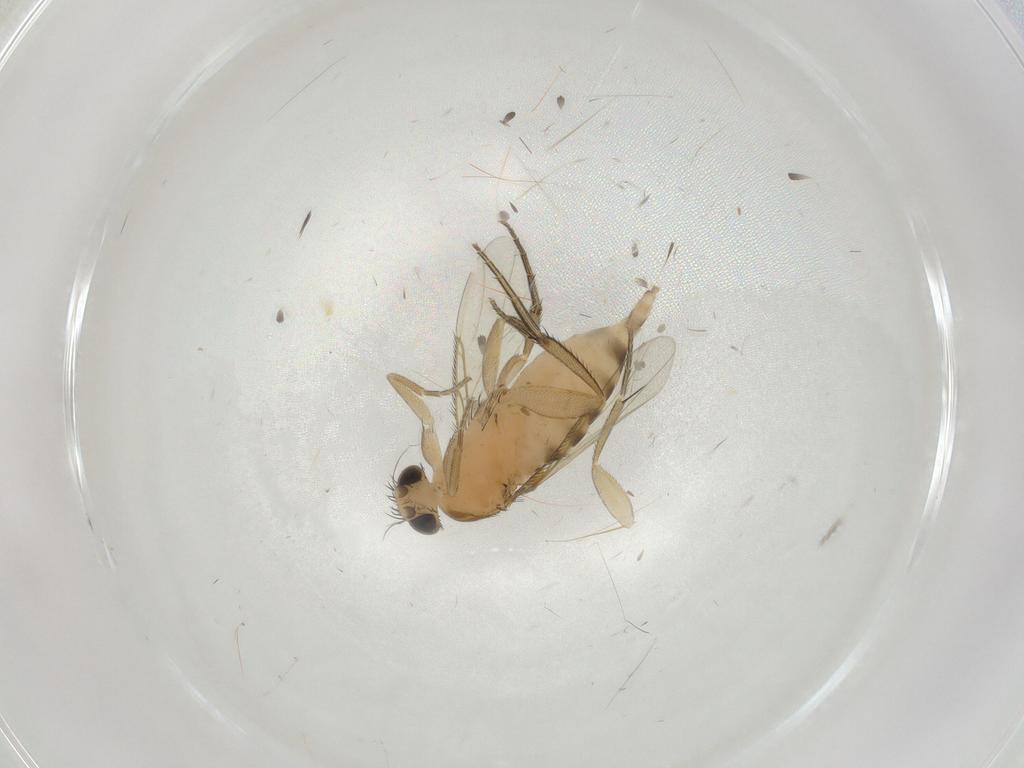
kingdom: Animalia
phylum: Arthropoda
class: Insecta
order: Diptera
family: Phoridae
